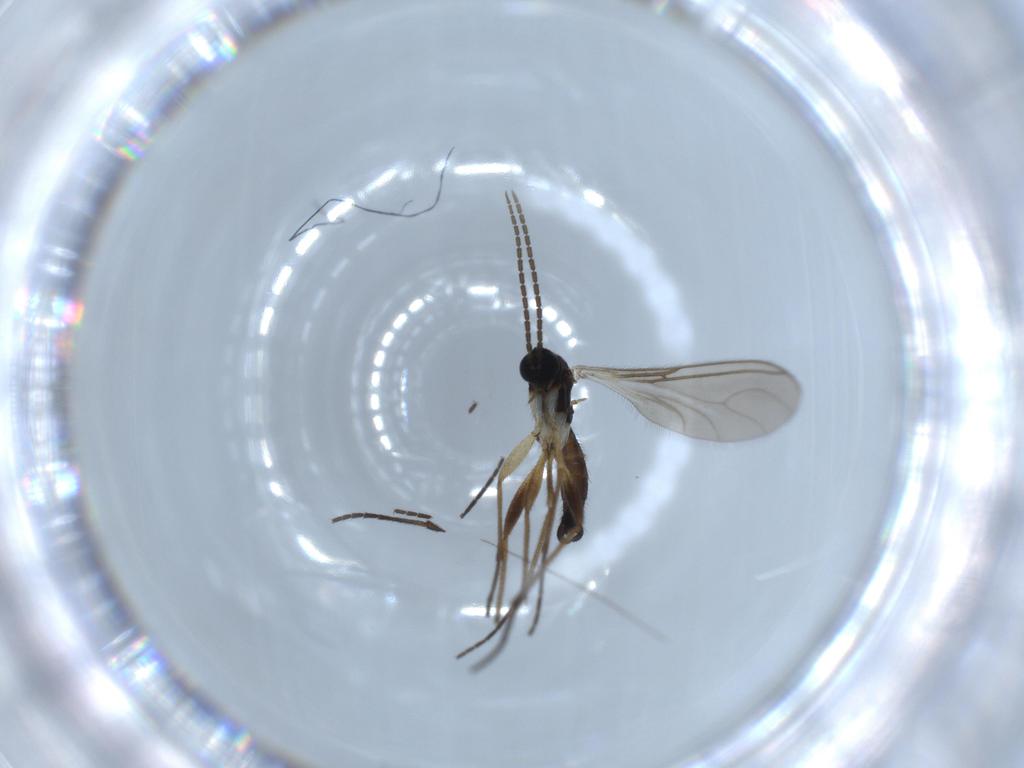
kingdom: Animalia
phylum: Arthropoda
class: Insecta
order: Diptera
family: Sciaridae
